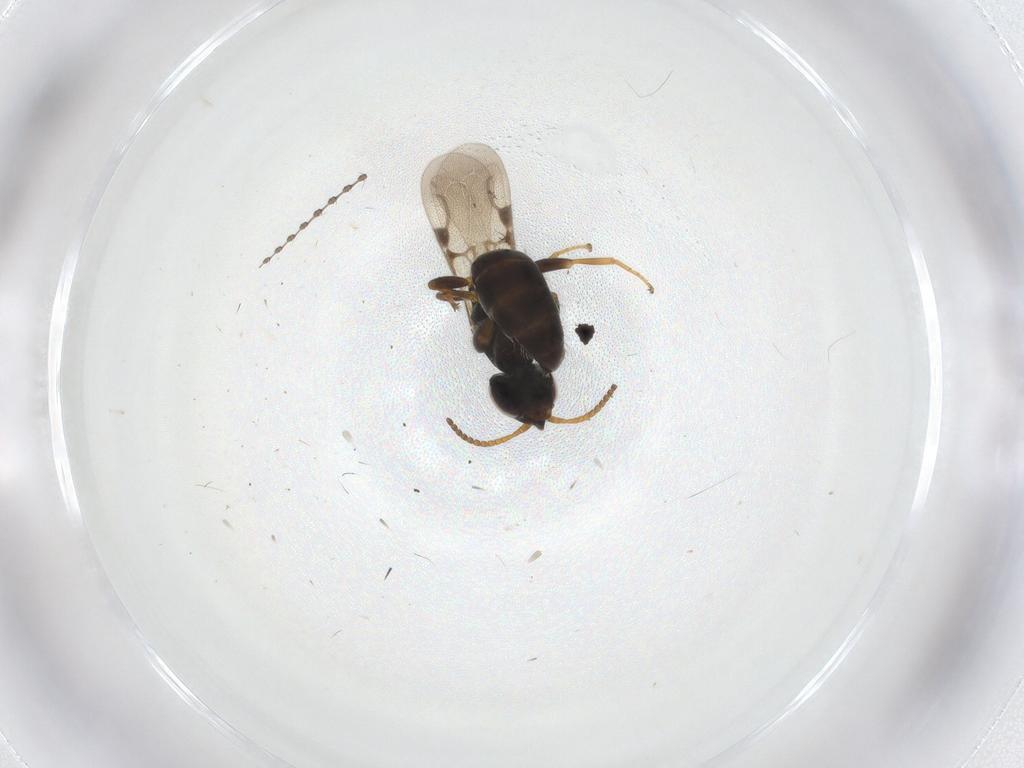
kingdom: Animalia
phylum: Arthropoda
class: Insecta
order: Hymenoptera
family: Bethylidae
